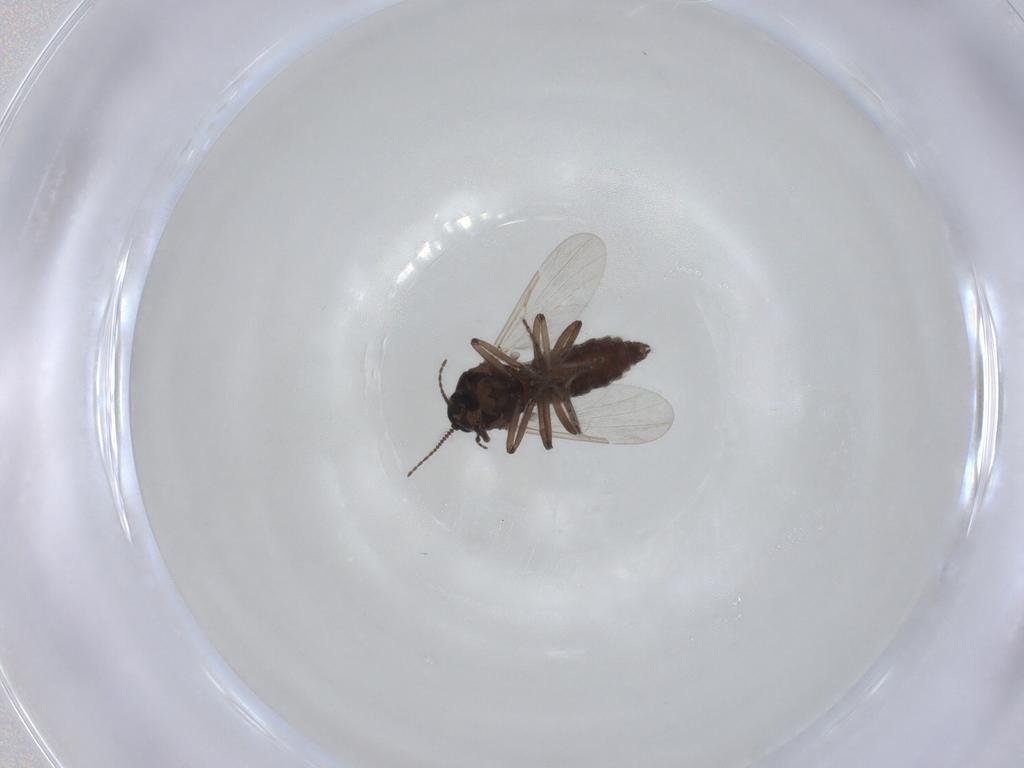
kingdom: Animalia
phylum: Arthropoda
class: Insecta
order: Diptera
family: Ceratopogonidae
